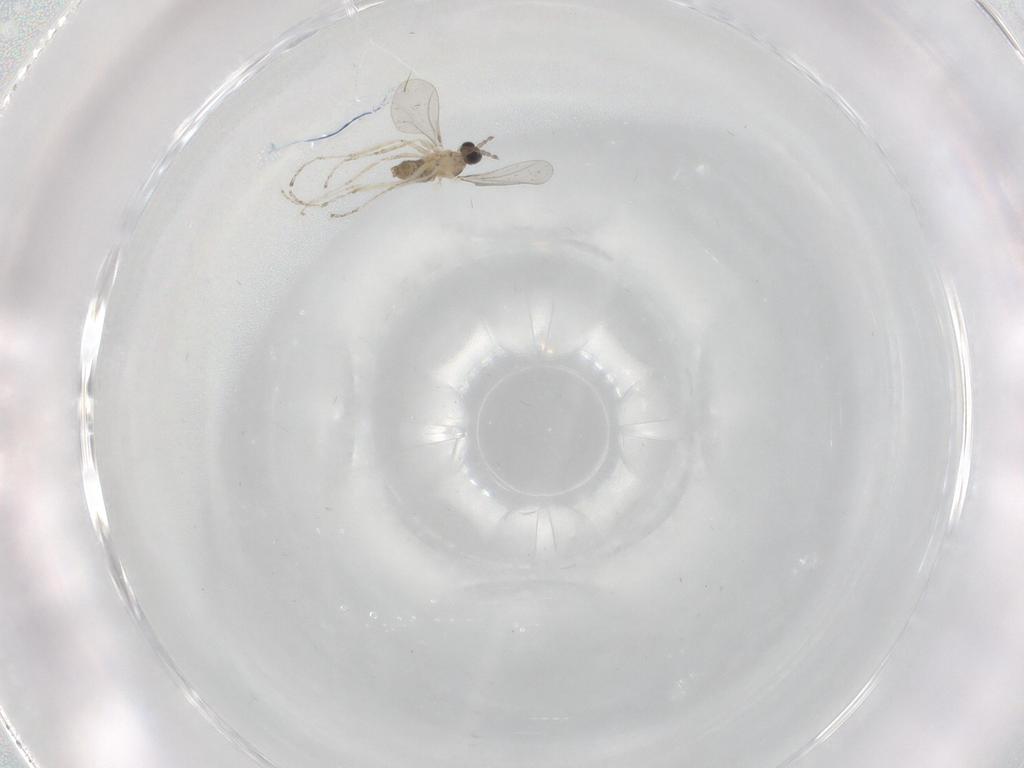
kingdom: Animalia
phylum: Arthropoda
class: Insecta
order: Diptera
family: Cecidomyiidae
